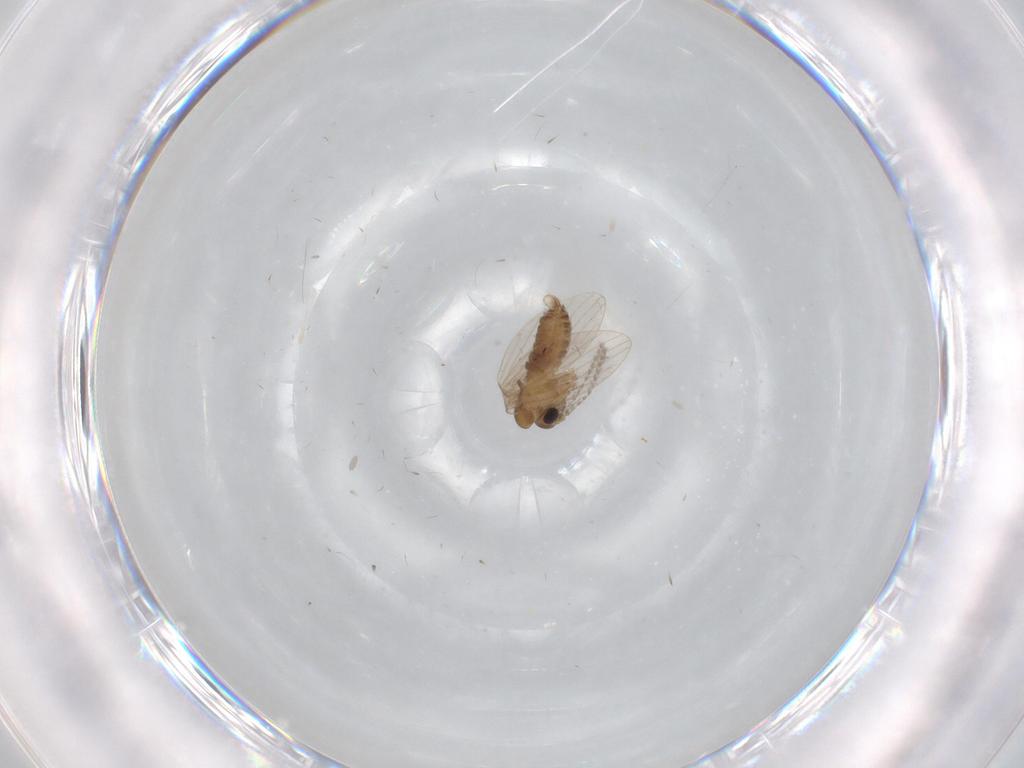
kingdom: Animalia
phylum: Arthropoda
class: Insecta
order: Diptera
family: Psychodidae
